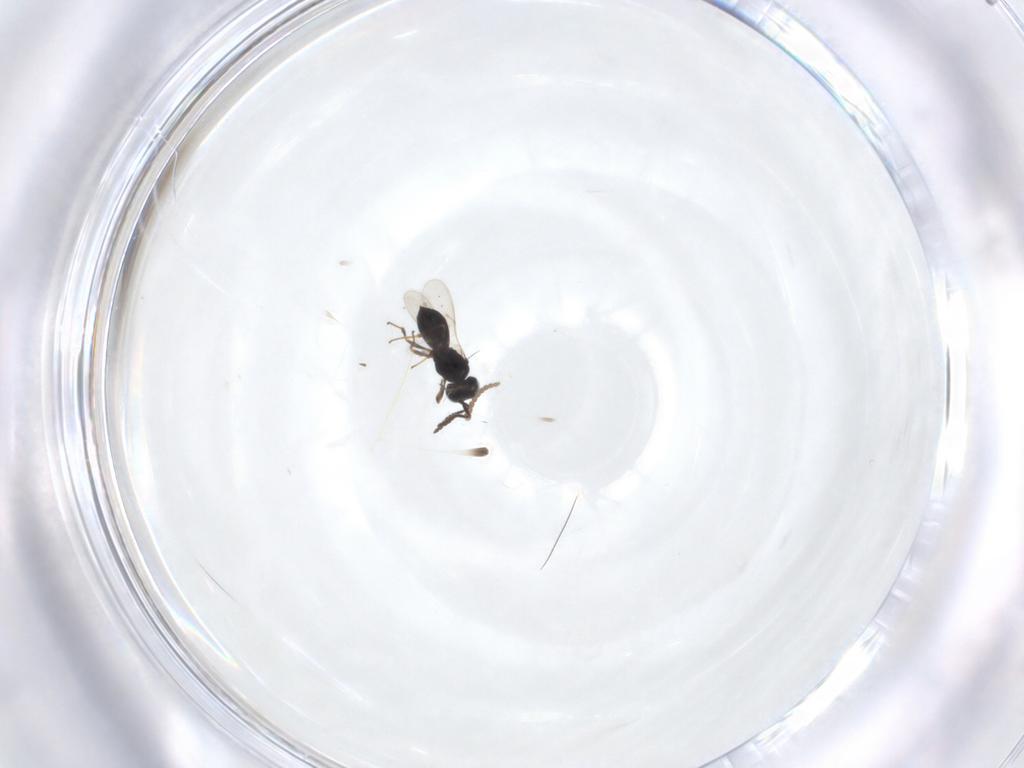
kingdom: Animalia
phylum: Arthropoda
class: Insecta
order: Hymenoptera
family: Scelionidae
